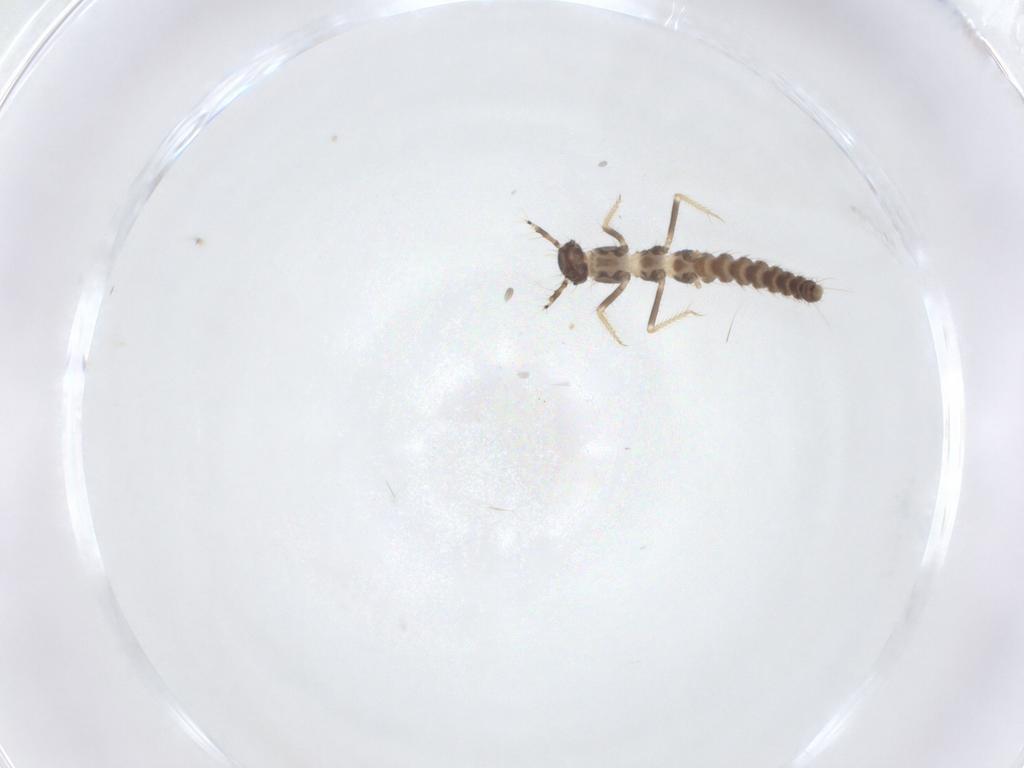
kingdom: Animalia
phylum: Arthropoda
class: Insecta
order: Coleoptera
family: Staphylinidae
